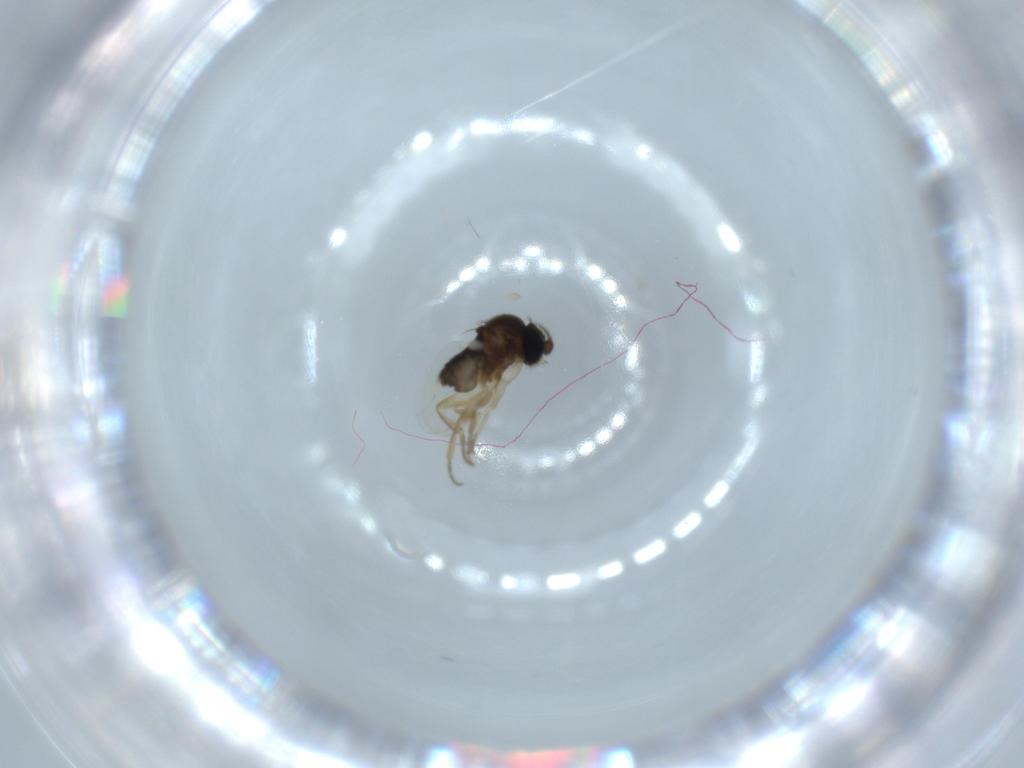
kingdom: Animalia
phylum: Arthropoda
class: Insecta
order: Diptera
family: Phoridae
